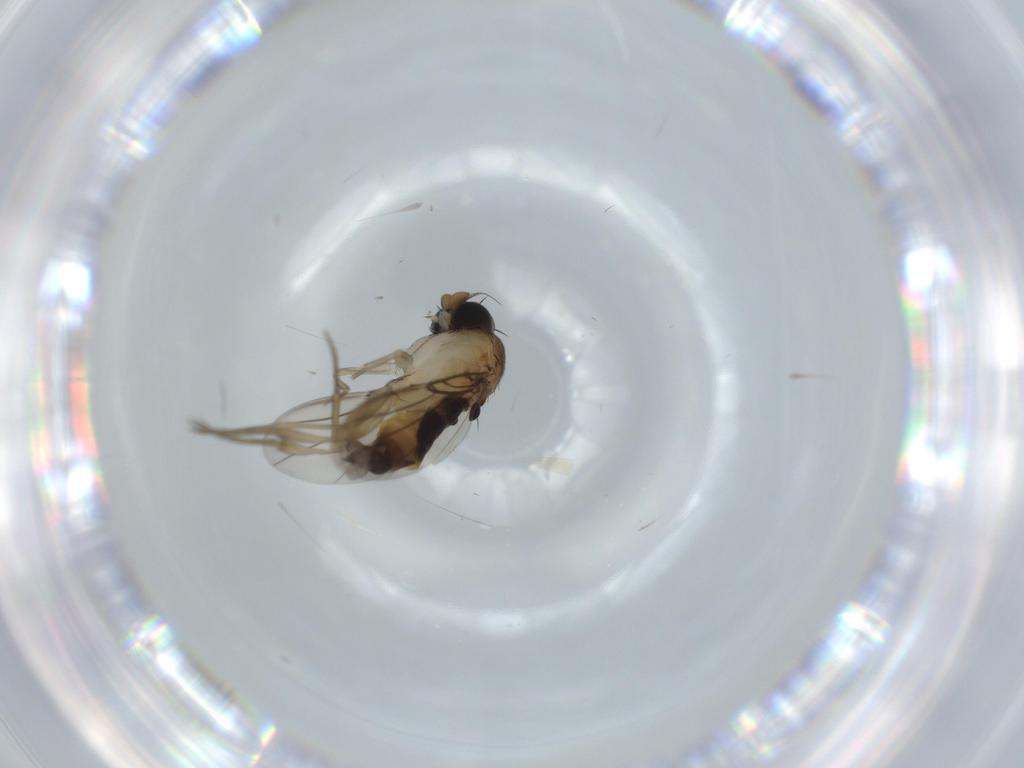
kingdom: Animalia
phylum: Arthropoda
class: Insecta
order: Diptera
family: Phoridae
